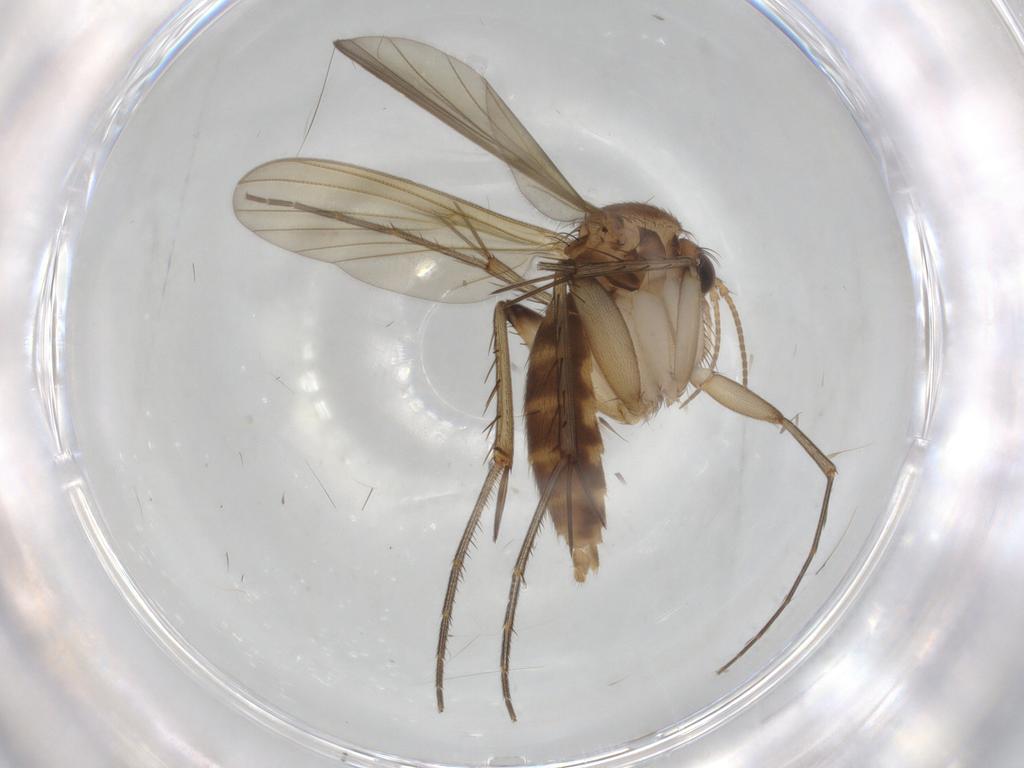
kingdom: Animalia
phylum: Arthropoda
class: Insecta
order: Diptera
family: Mycetophilidae
